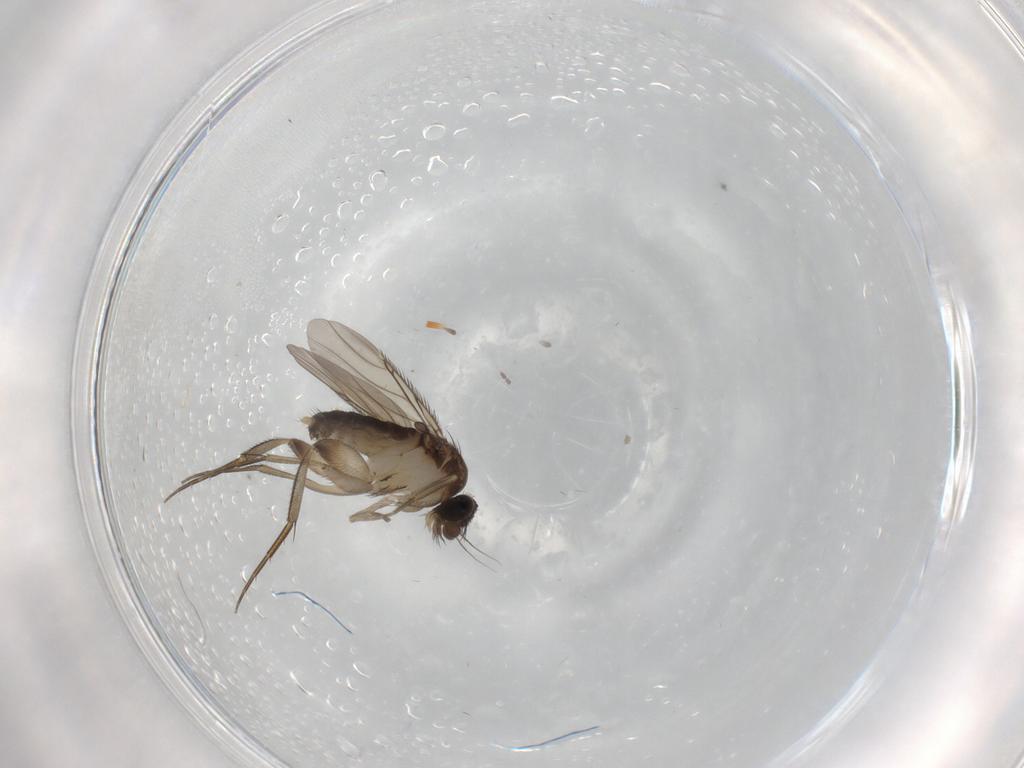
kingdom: Animalia
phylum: Arthropoda
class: Insecta
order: Diptera
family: Phoridae
